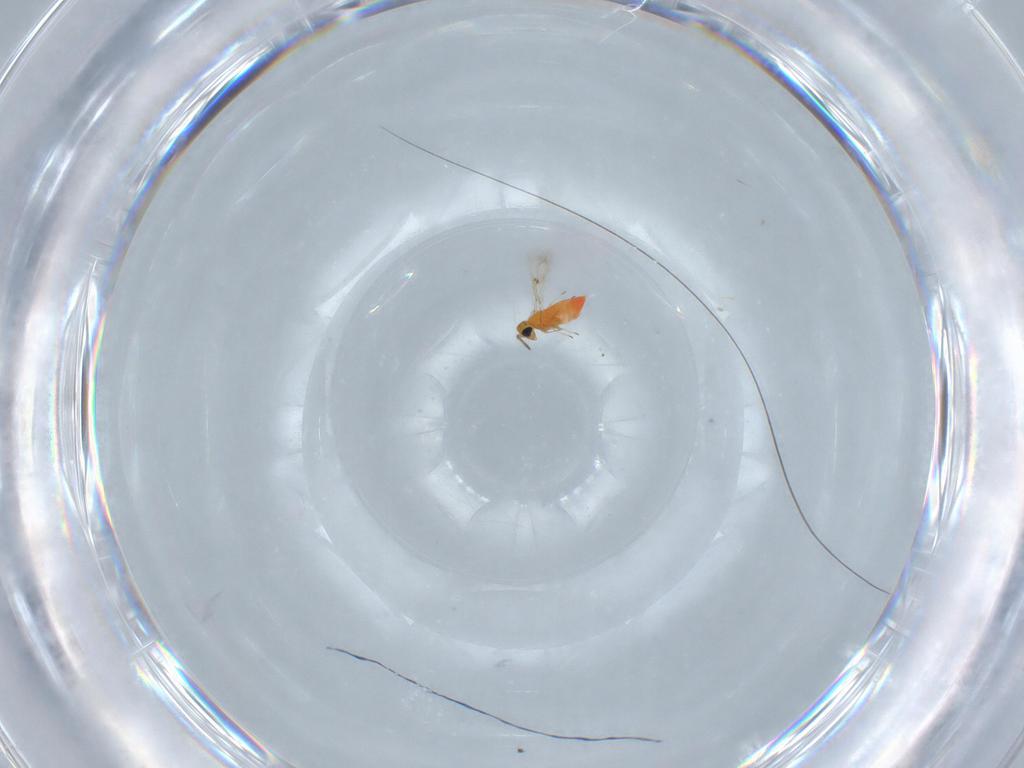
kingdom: Animalia
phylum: Arthropoda
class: Insecta
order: Hymenoptera
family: Trichogrammatidae
